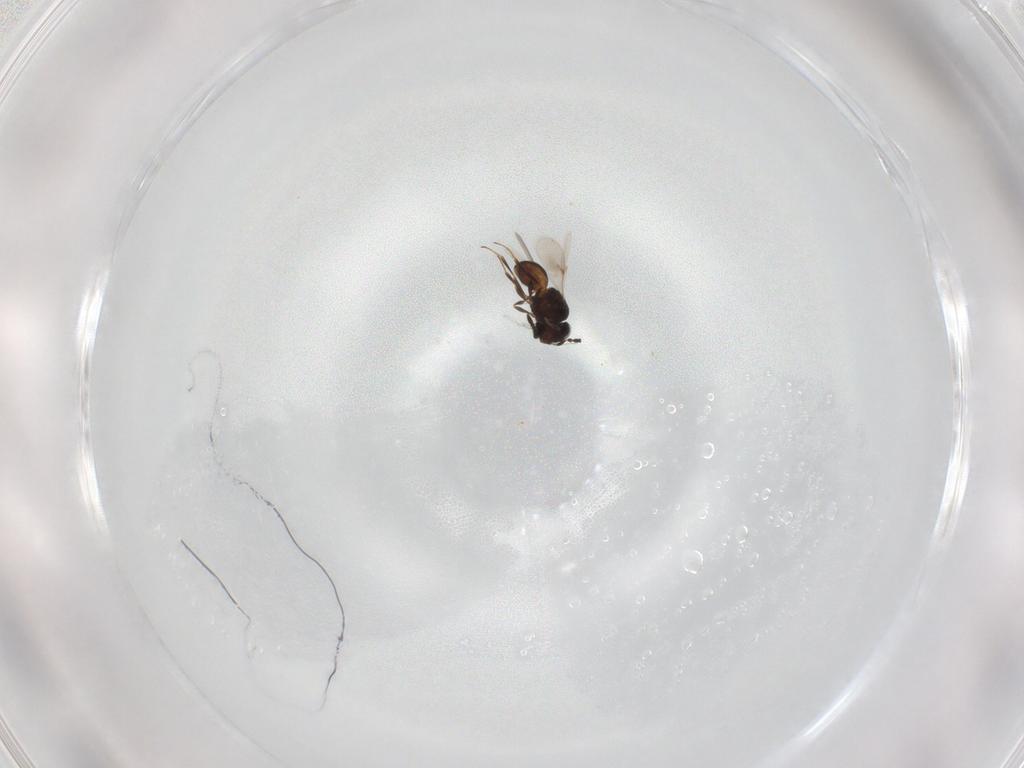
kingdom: Animalia
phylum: Arthropoda
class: Insecta
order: Hymenoptera
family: Scelionidae
